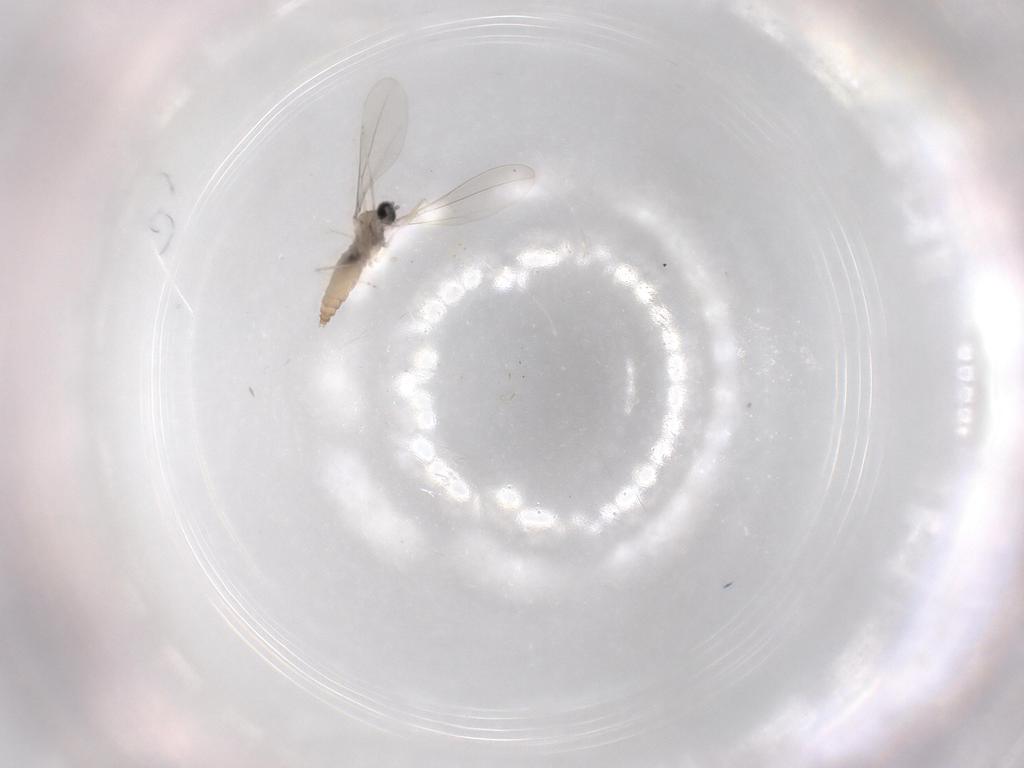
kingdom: Animalia
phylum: Arthropoda
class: Insecta
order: Diptera
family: Cecidomyiidae
